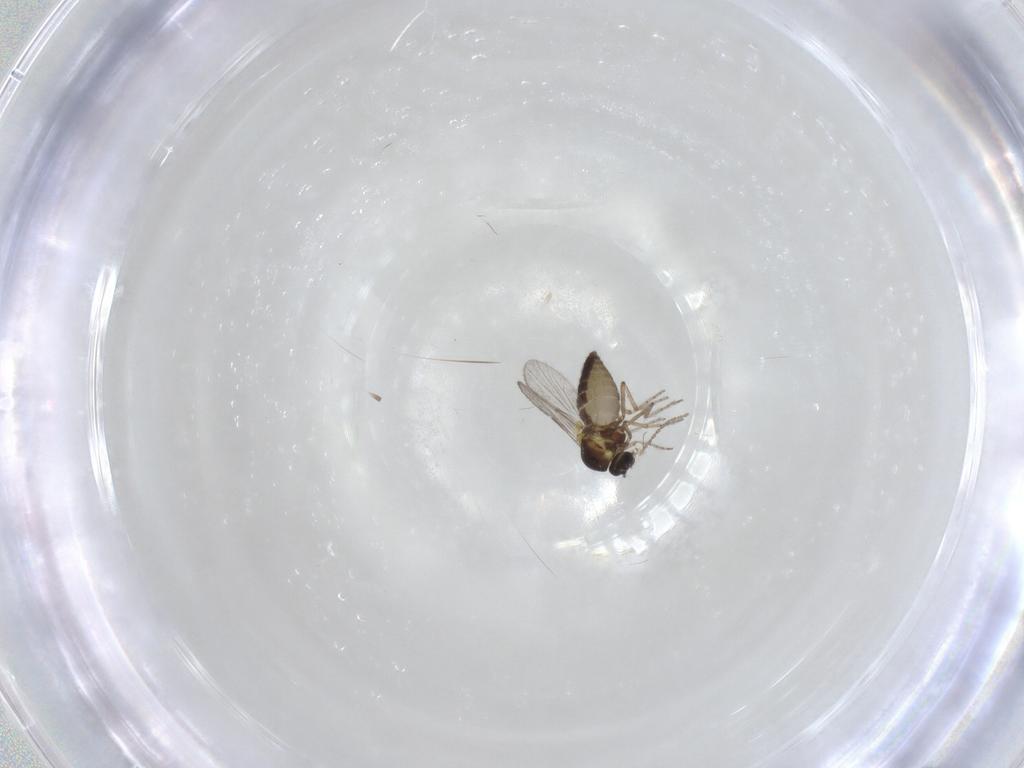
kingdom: Animalia
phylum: Arthropoda
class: Insecta
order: Diptera
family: Ceratopogonidae
